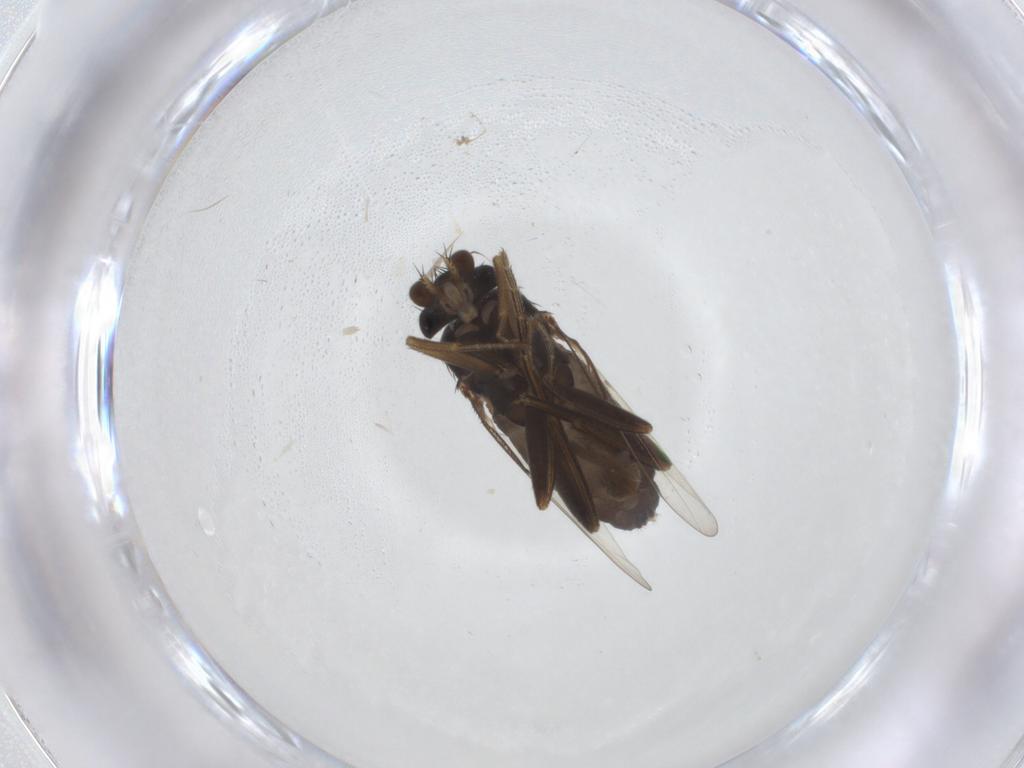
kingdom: Animalia
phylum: Arthropoda
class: Insecta
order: Diptera
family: Phoridae
